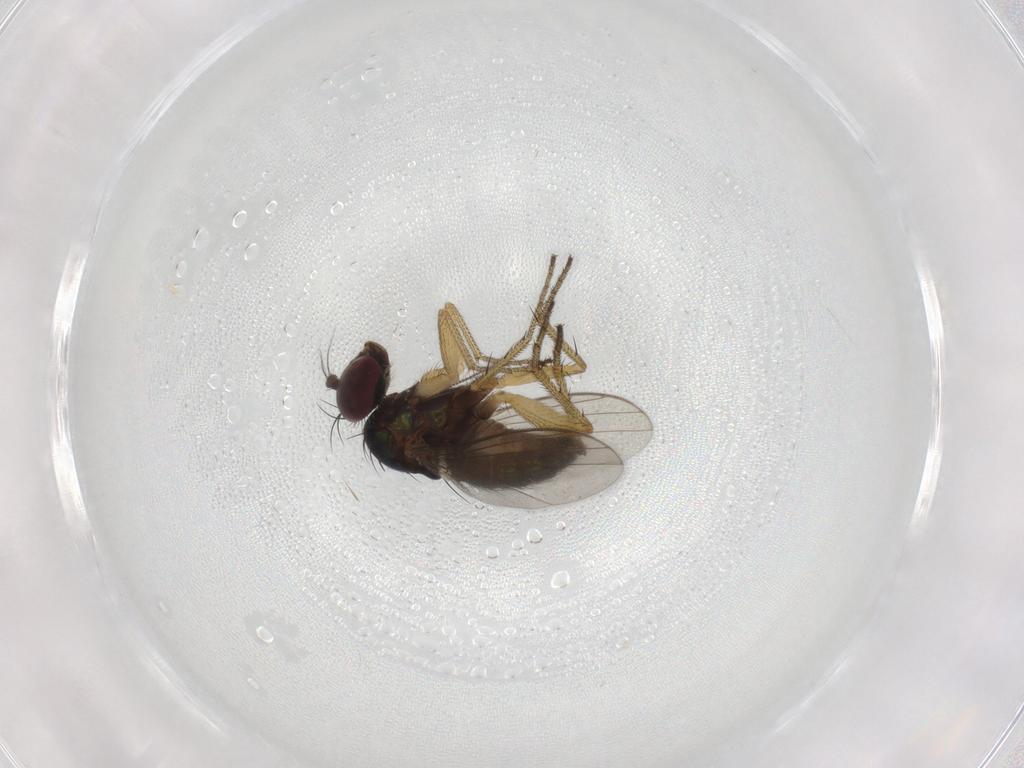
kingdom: Animalia
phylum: Arthropoda
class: Insecta
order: Diptera
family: Dolichopodidae
